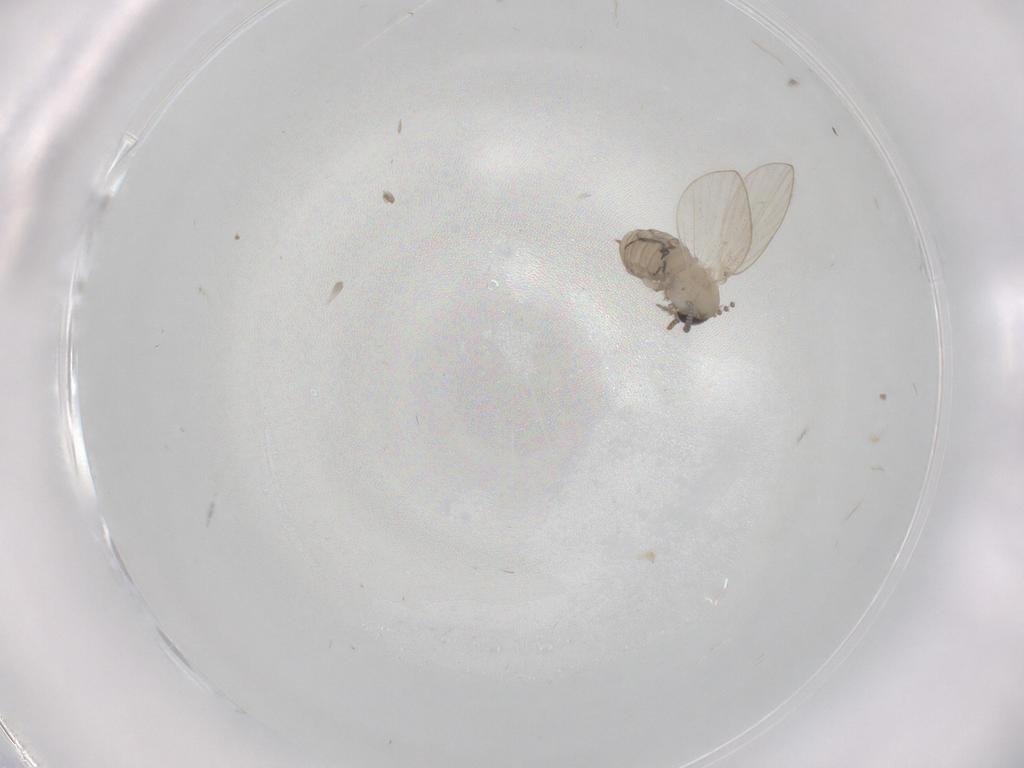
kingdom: Animalia
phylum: Arthropoda
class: Insecta
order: Diptera
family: Psychodidae
